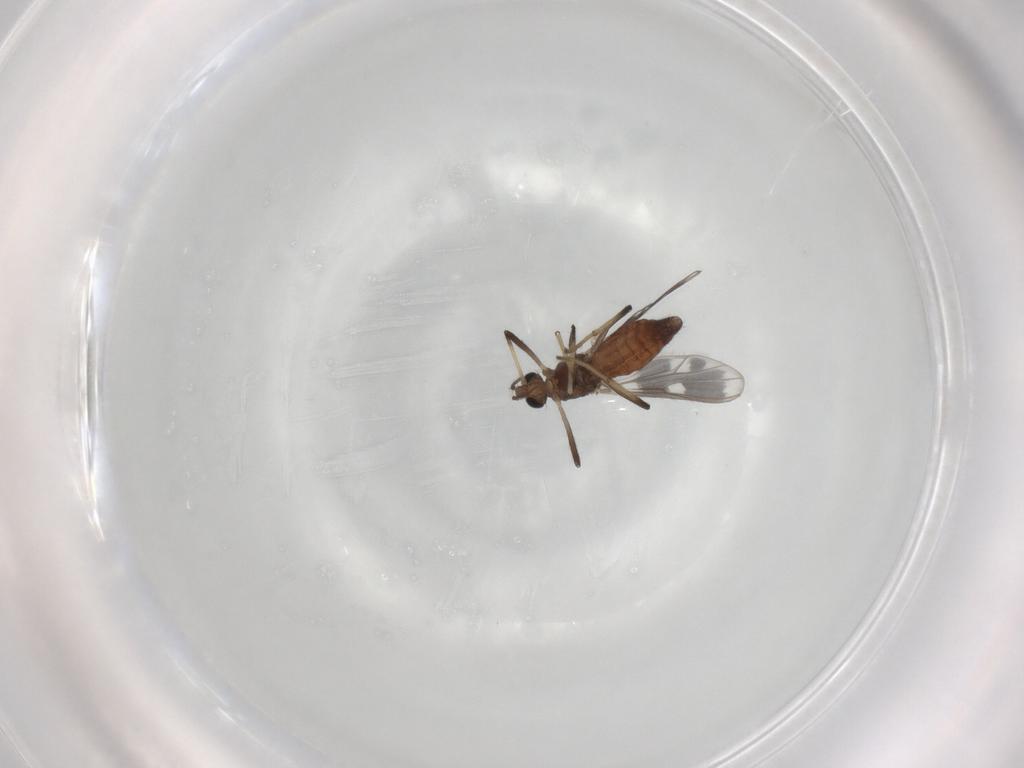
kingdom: Animalia
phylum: Arthropoda
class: Insecta
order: Diptera
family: Chironomidae
